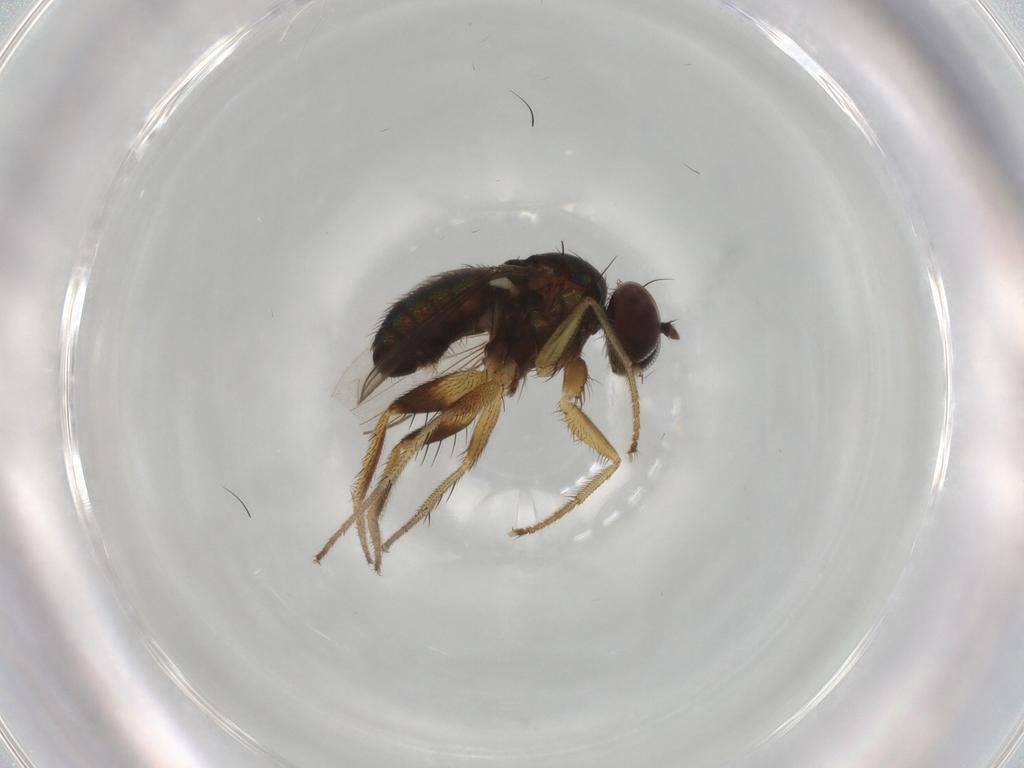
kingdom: Animalia
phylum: Arthropoda
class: Insecta
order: Diptera
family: Dolichopodidae
